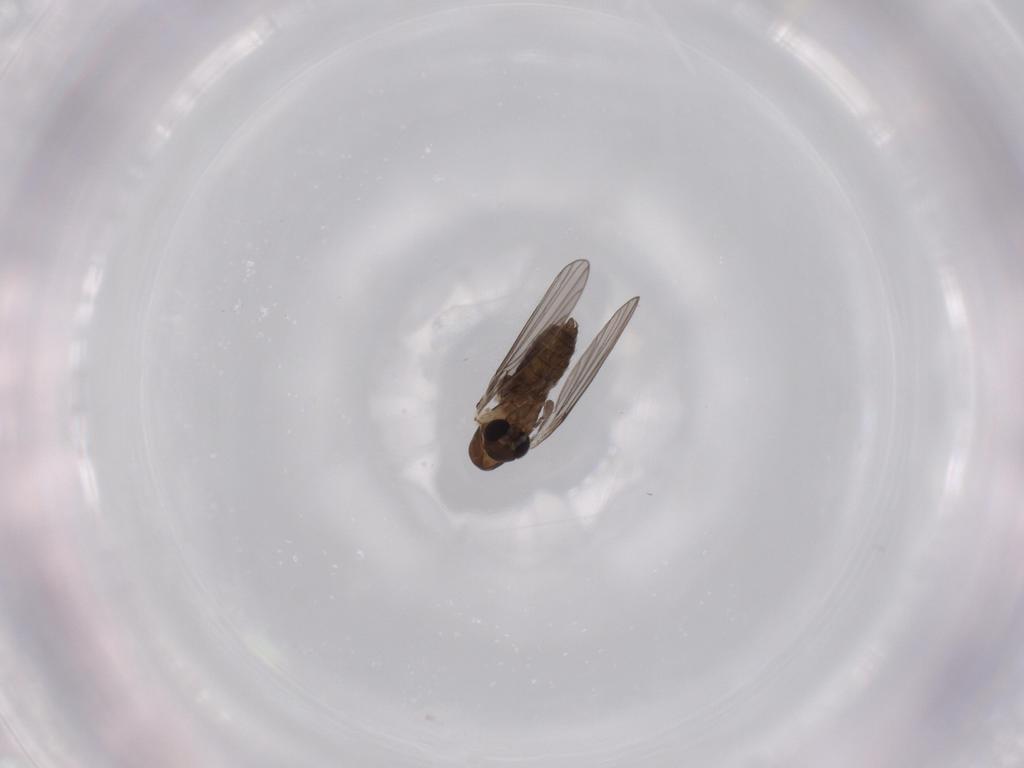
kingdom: Animalia
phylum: Arthropoda
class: Insecta
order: Diptera
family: Psychodidae
